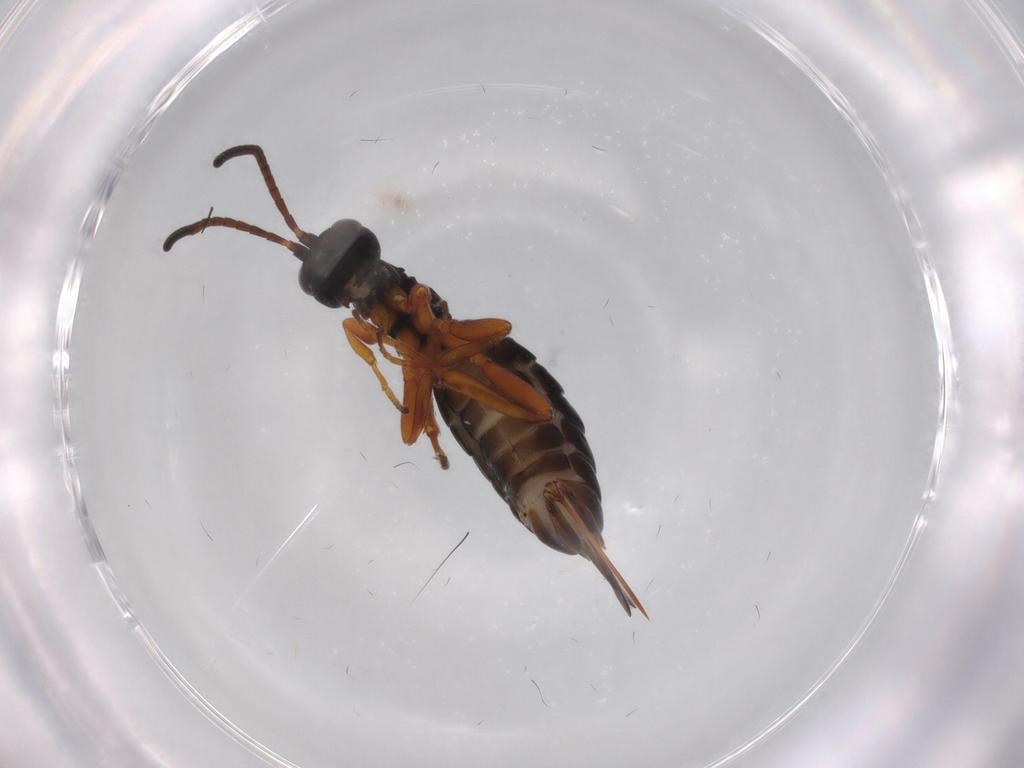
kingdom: Animalia
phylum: Arthropoda
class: Insecta
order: Hymenoptera
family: Ichneumonidae
